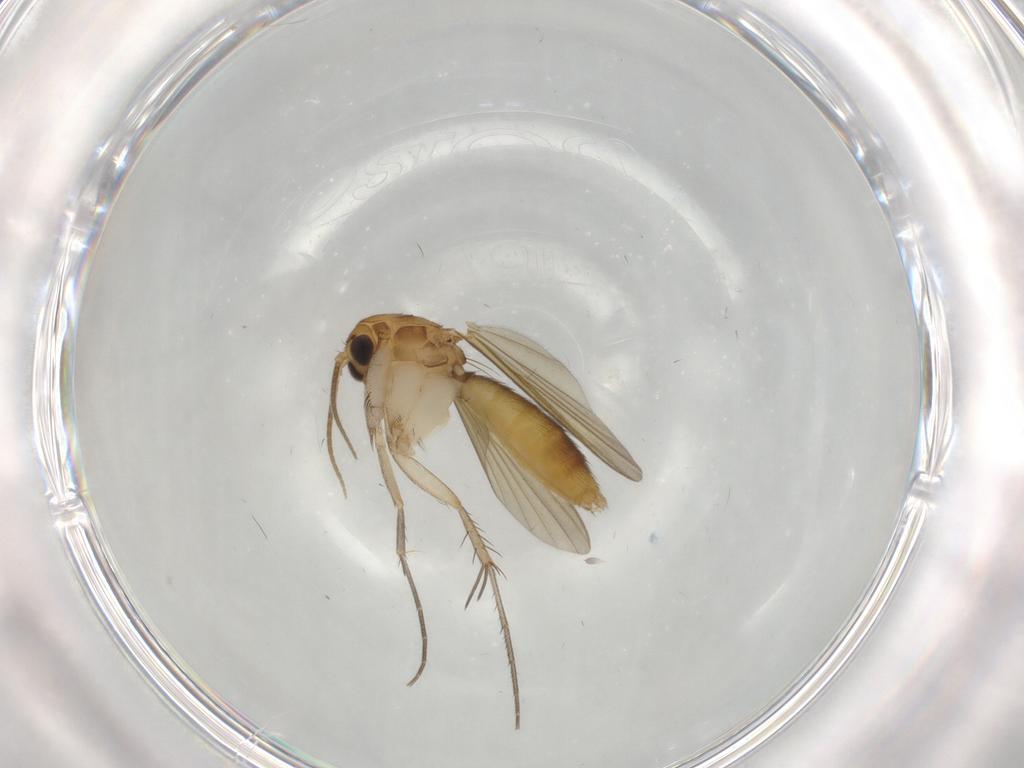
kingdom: Animalia
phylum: Arthropoda
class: Insecta
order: Diptera
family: Mycetophilidae
